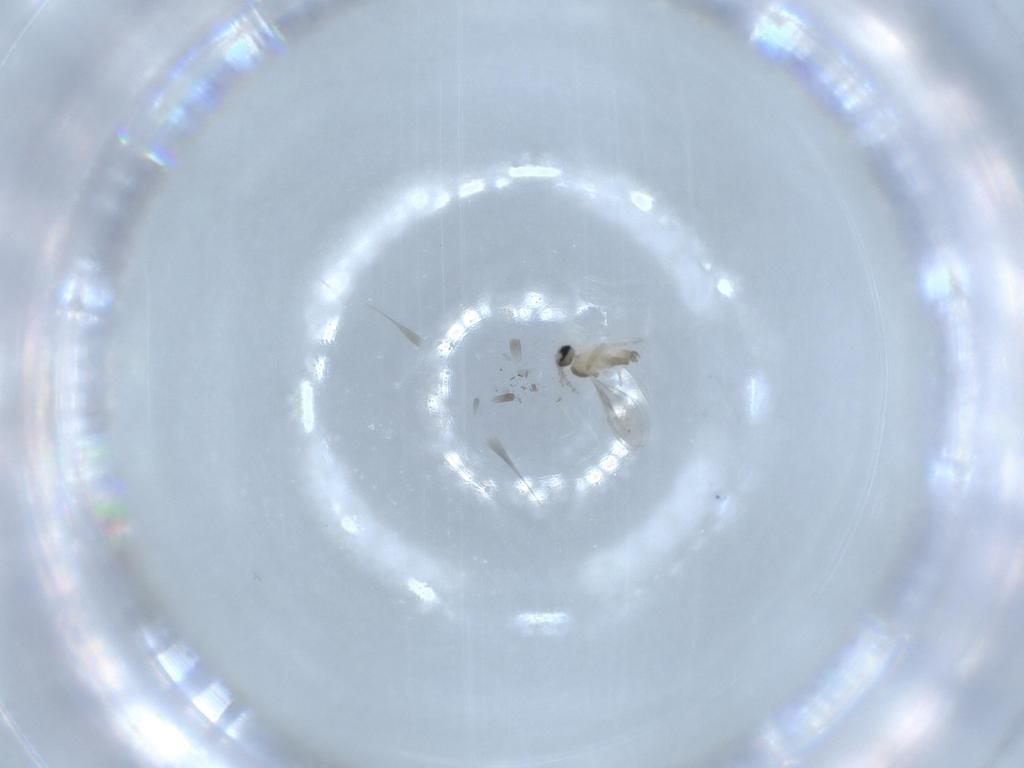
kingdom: Animalia
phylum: Arthropoda
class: Insecta
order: Diptera
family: Cecidomyiidae
